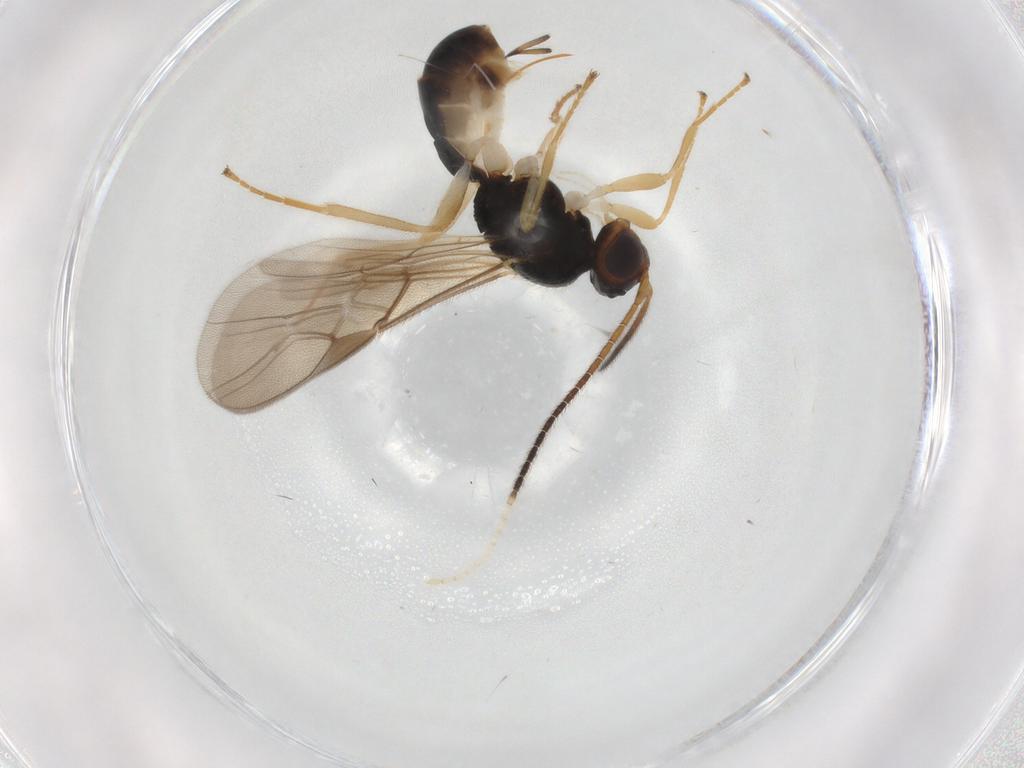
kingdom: Animalia
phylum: Arthropoda
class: Insecta
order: Hymenoptera
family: Braconidae
